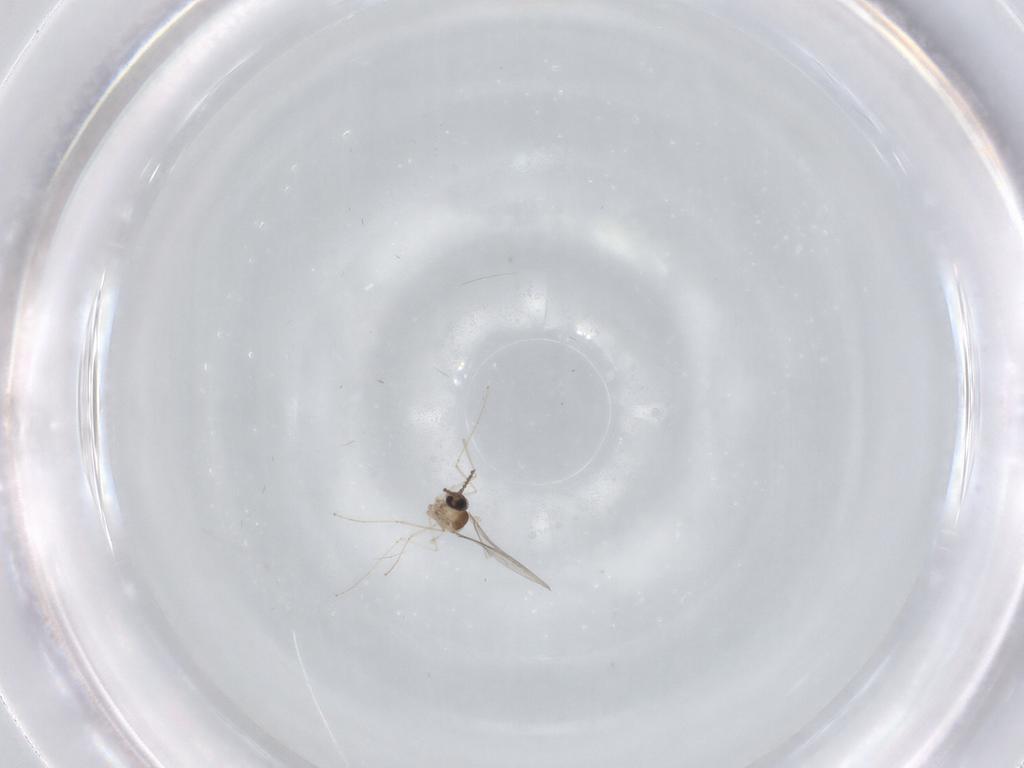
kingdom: Animalia
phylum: Arthropoda
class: Insecta
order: Diptera
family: Cecidomyiidae
